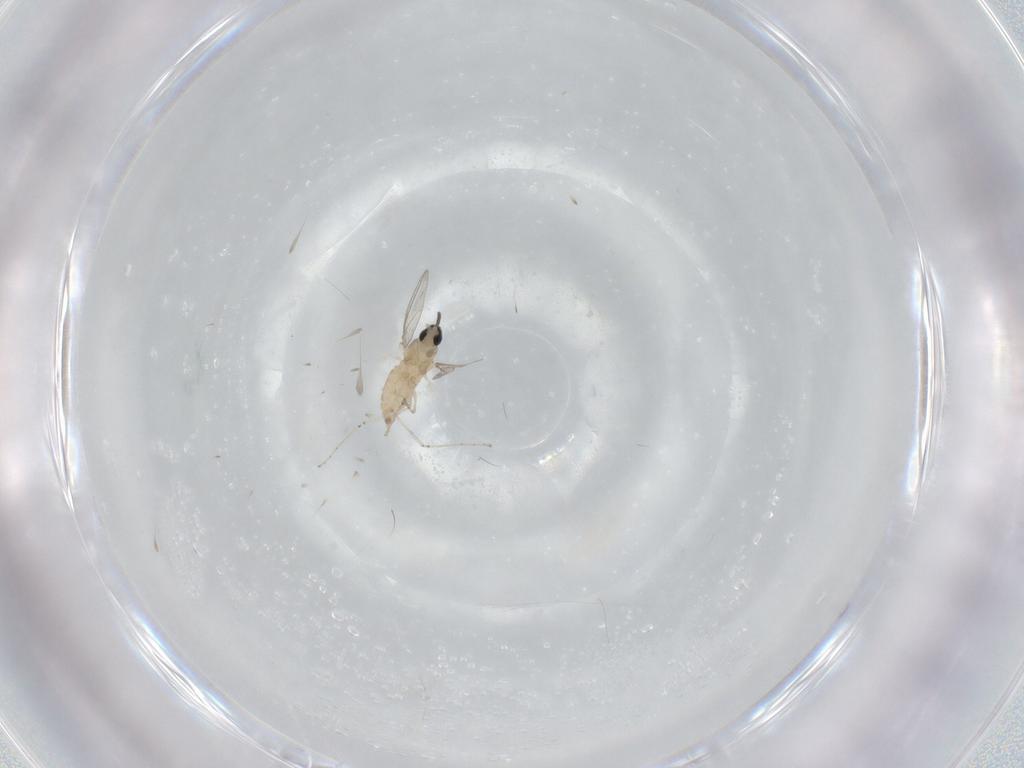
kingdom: Animalia
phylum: Arthropoda
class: Insecta
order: Diptera
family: Phoridae
